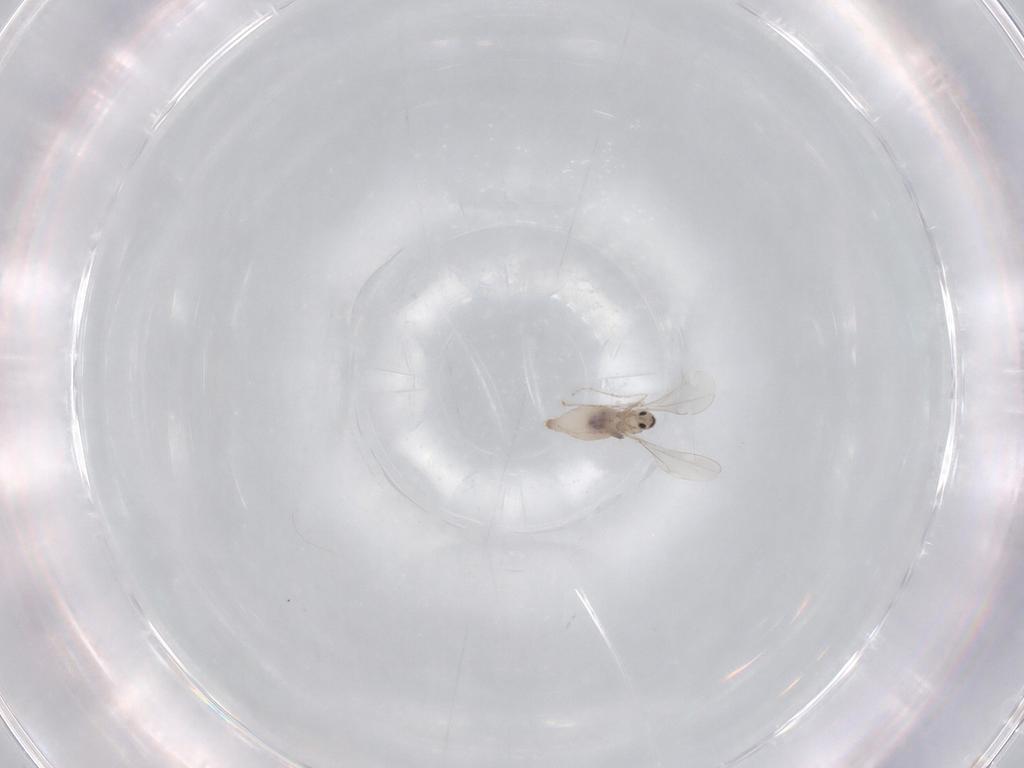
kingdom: Animalia
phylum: Arthropoda
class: Insecta
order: Diptera
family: Cecidomyiidae
